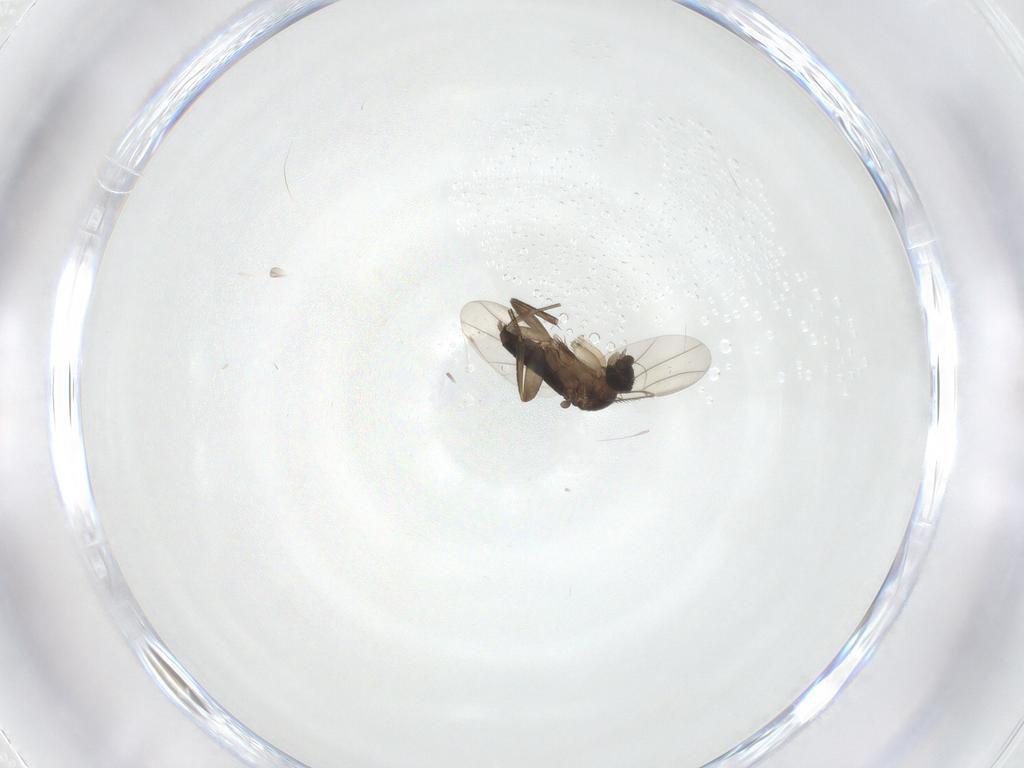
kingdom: Animalia
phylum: Arthropoda
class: Insecta
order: Diptera
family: Phoridae
